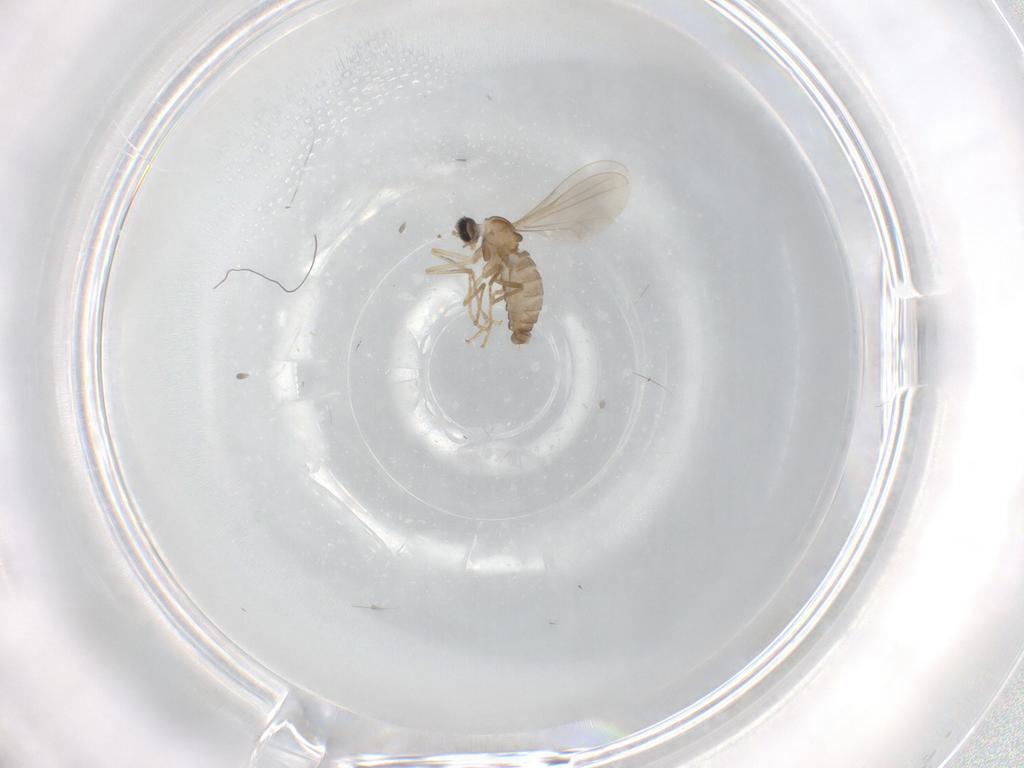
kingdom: Animalia
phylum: Arthropoda
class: Insecta
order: Diptera
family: Cecidomyiidae
